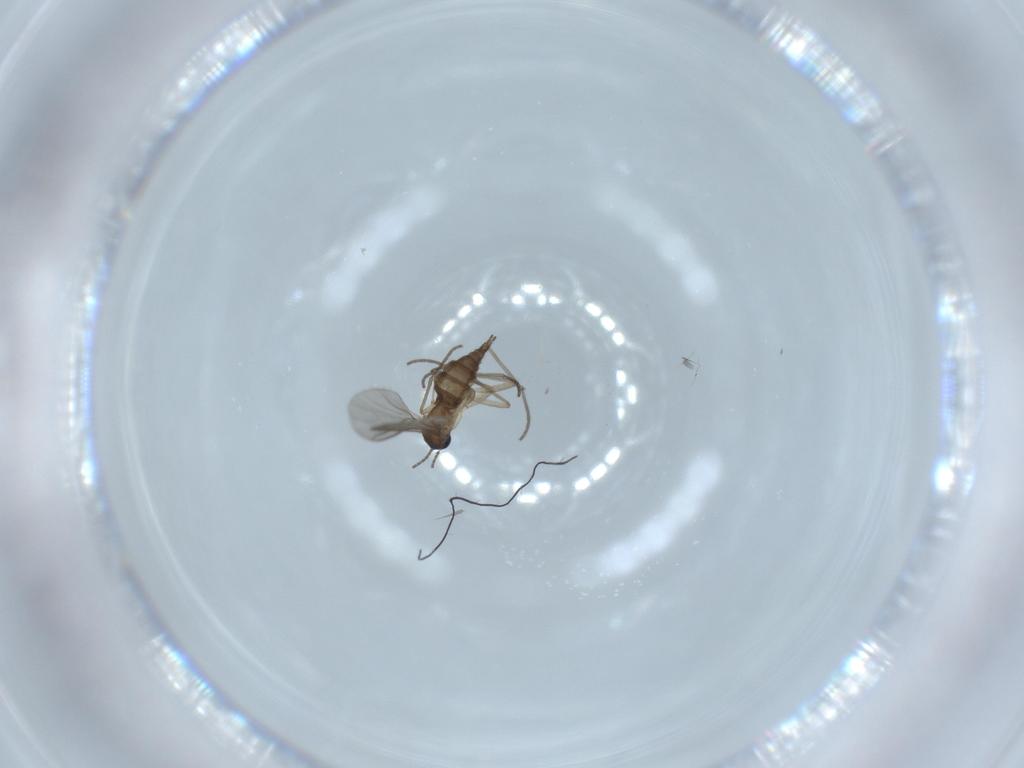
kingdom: Animalia
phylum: Arthropoda
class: Insecta
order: Diptera
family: Sciaridae
